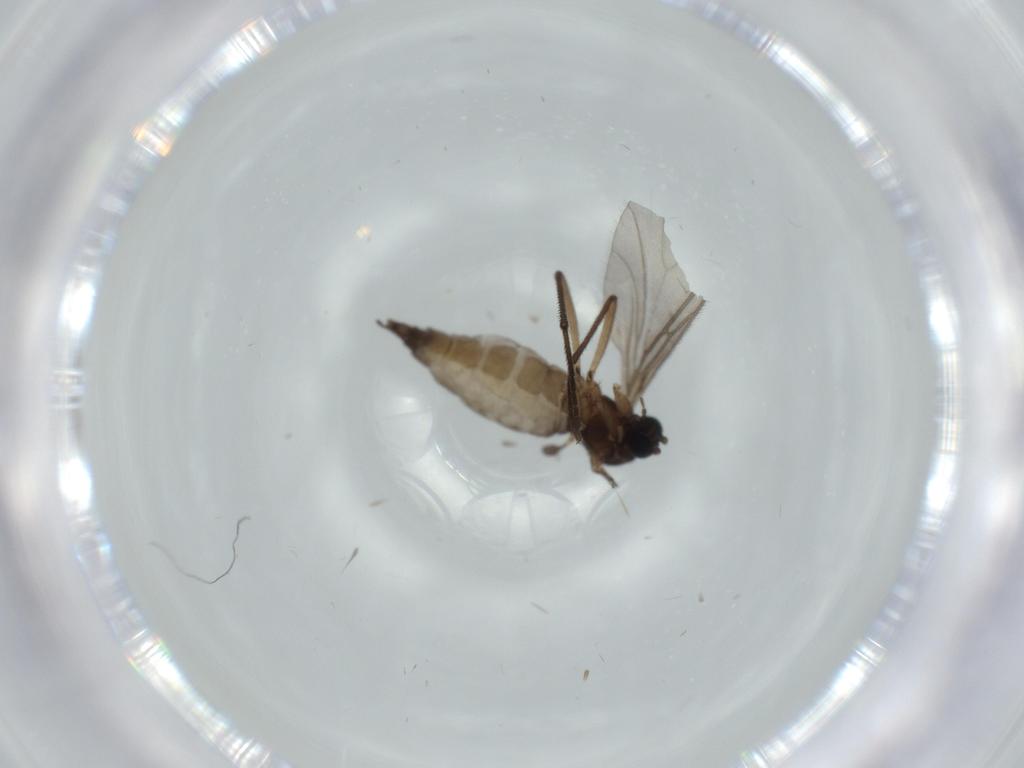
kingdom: Animalia
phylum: Arthropoda
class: Insecta
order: Diptera
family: Sciaridae
